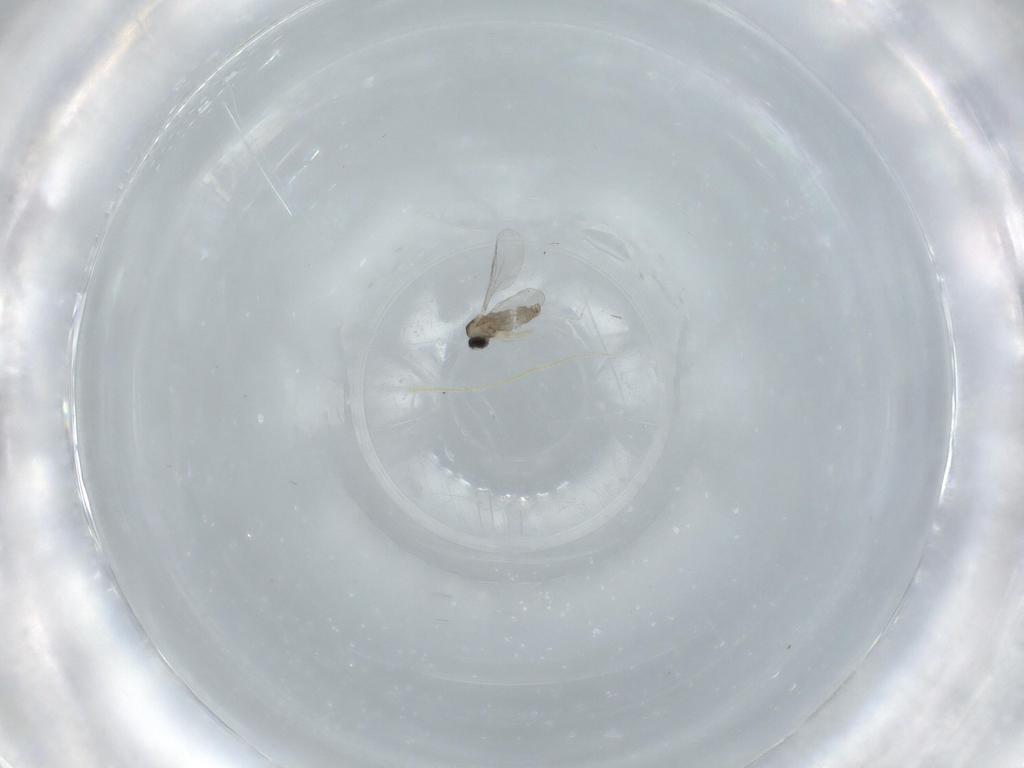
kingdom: Animalia
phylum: Arthropoda
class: Insecta
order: Diptera
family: Cecidomyiidae
